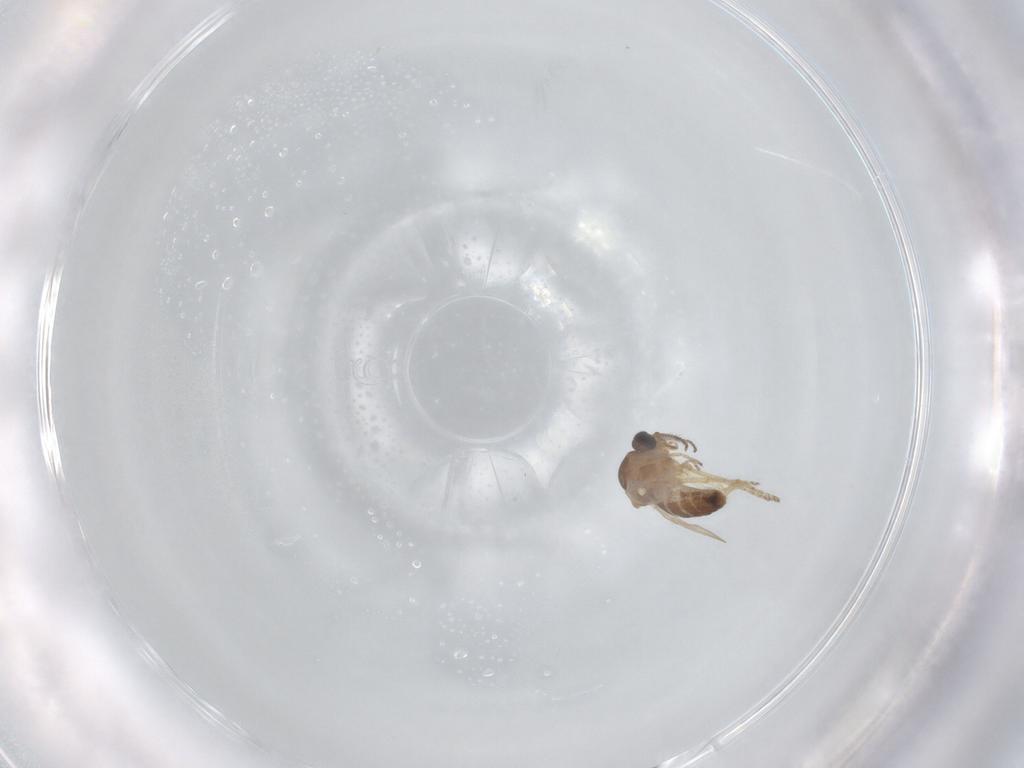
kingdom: Animalia
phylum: Arthropoda
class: Insecta
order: Diptera
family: Ceratopogonidae
